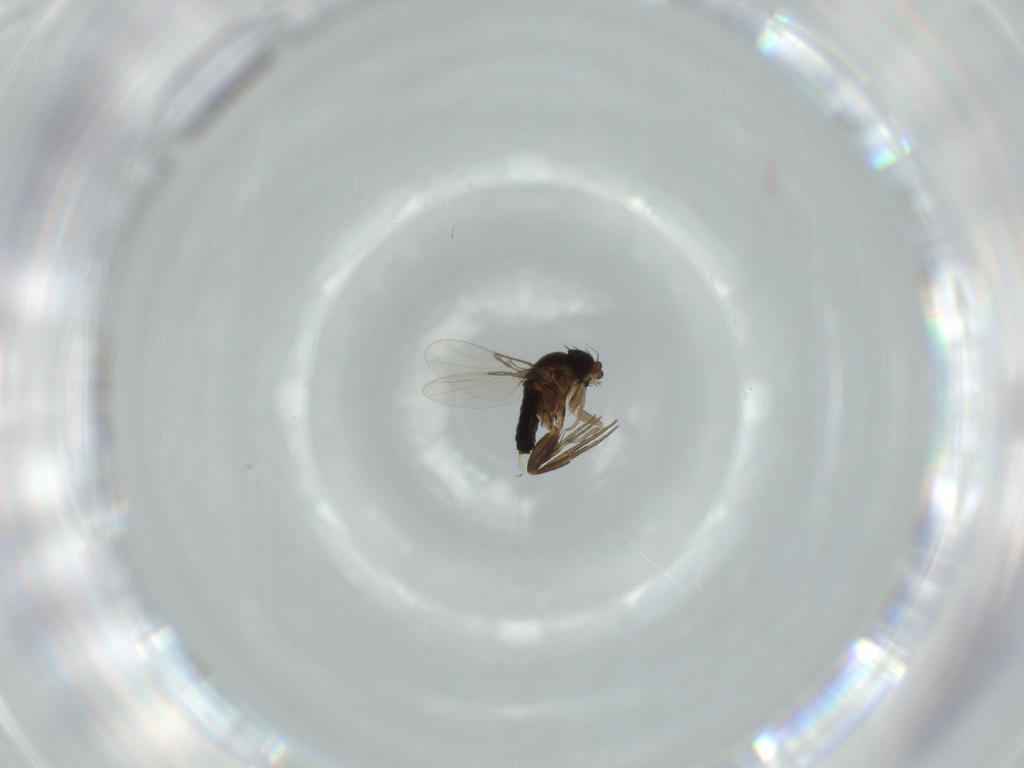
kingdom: Animalia
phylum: Arthropoda
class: Insecta
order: Diptera
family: Phoridae
